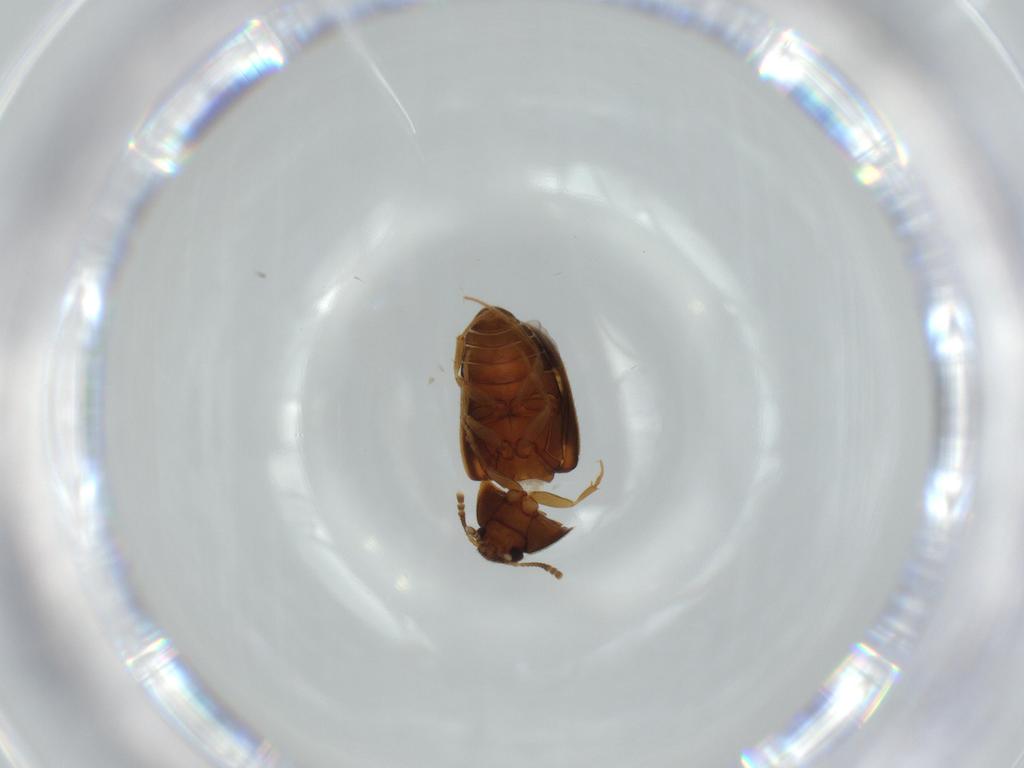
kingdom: Animalia
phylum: Arthropoda
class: Insecta
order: Coleoptera
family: Mycetophagidae
